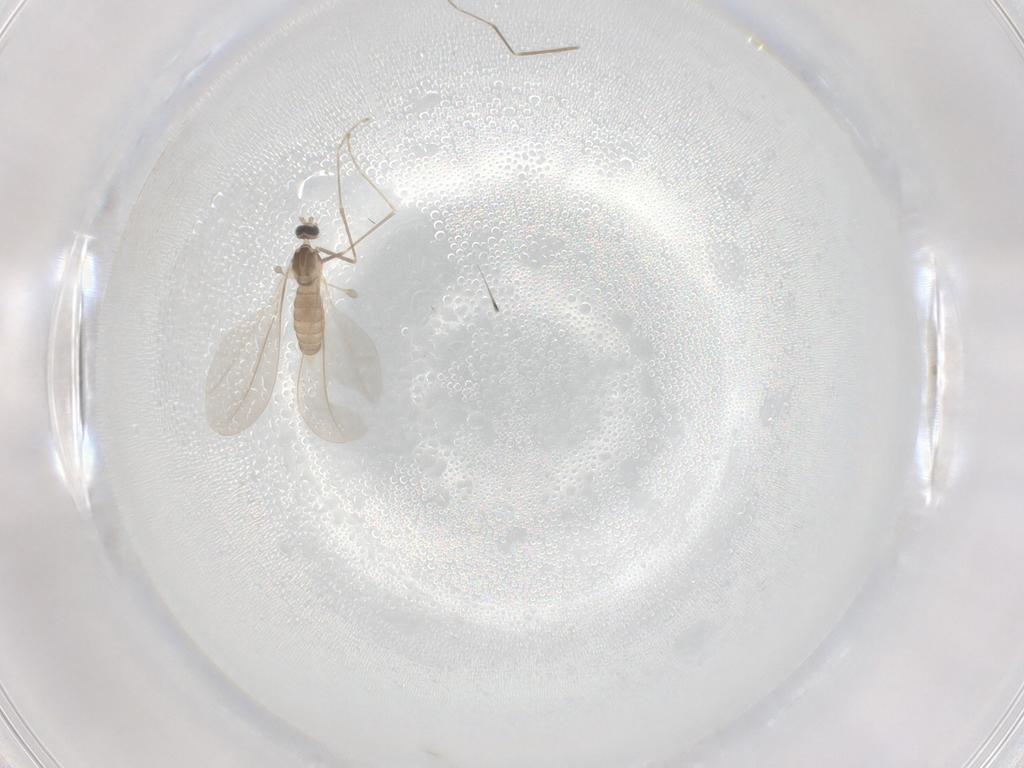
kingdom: Animalia
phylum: Arthropoda
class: Insecta
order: Diptera
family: Cecidomyiidae
